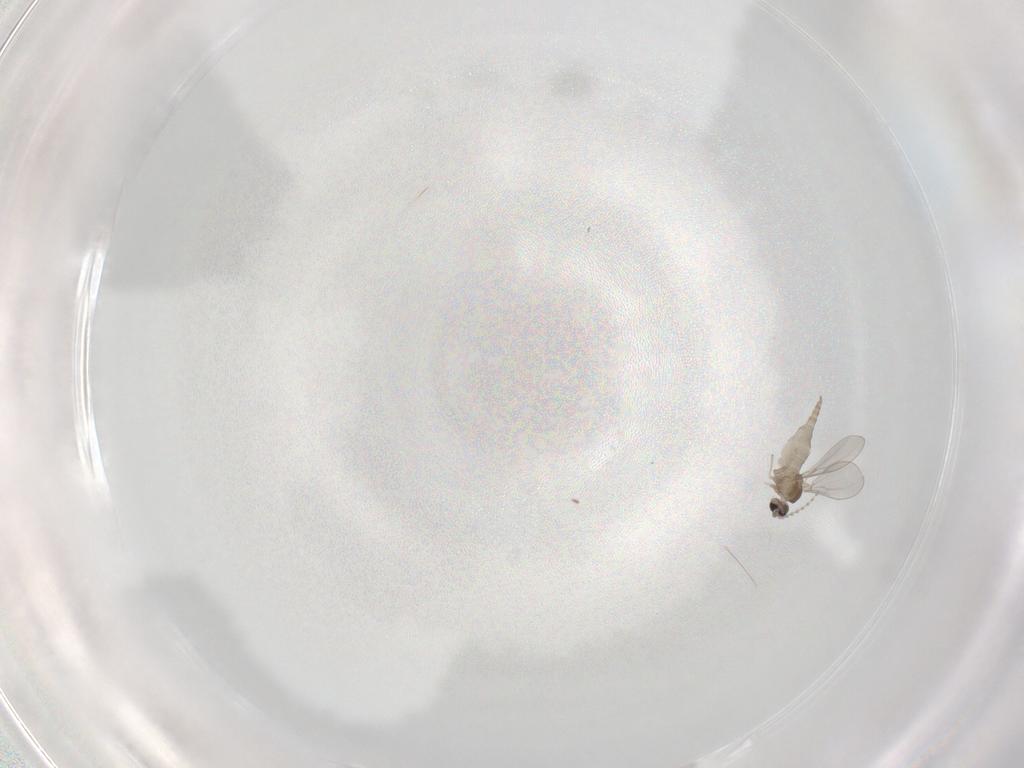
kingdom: Animalia
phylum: Arthropoda
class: Insecta
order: Diptera
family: Cecidomyiidae
